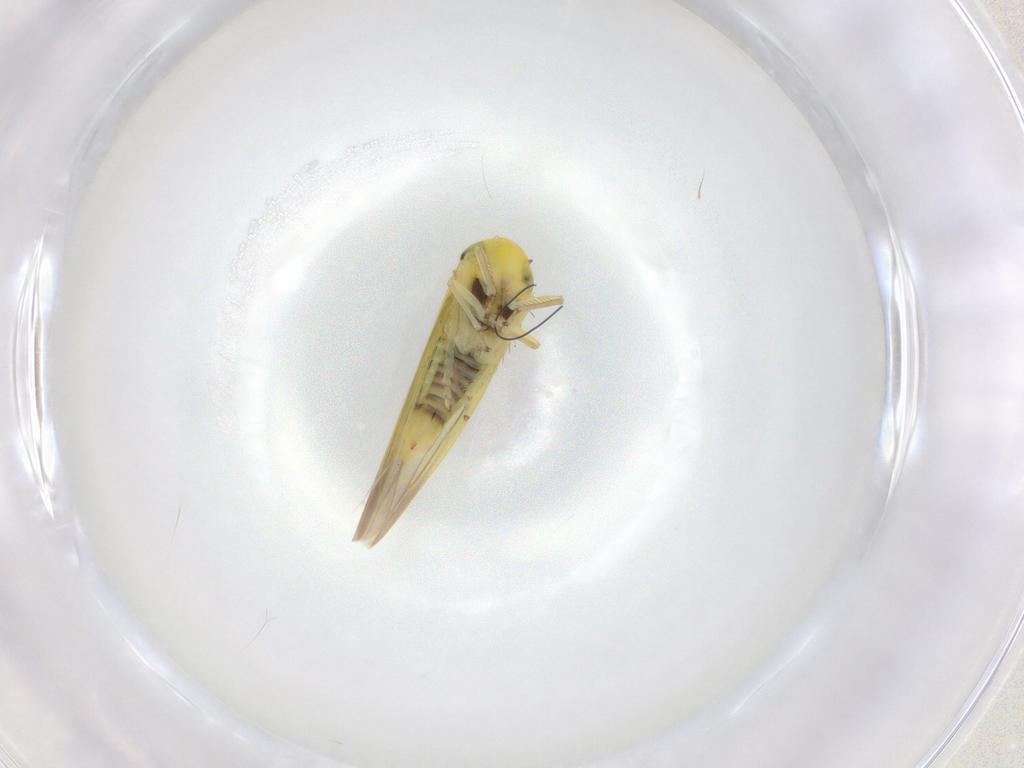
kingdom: Animalia
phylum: Arthropoda
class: Insecta
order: Hemiptera
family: Cicadellidae
